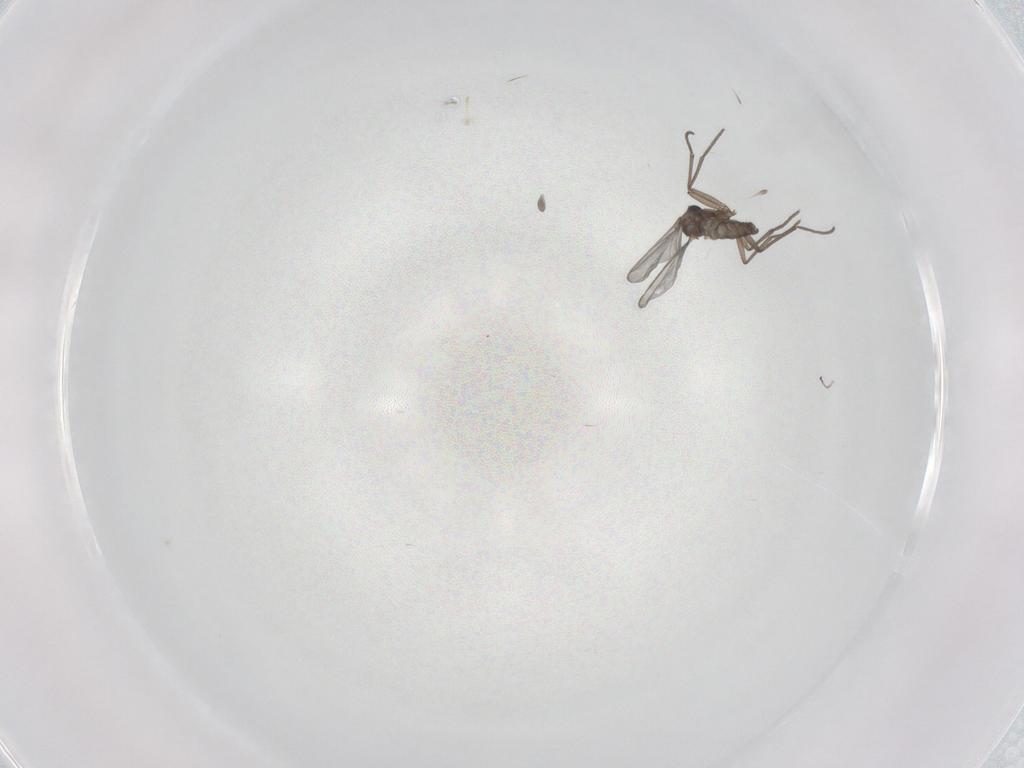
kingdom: Animalia
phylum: Arthropoda
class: Insecta
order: Diptera
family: Sciaridae
